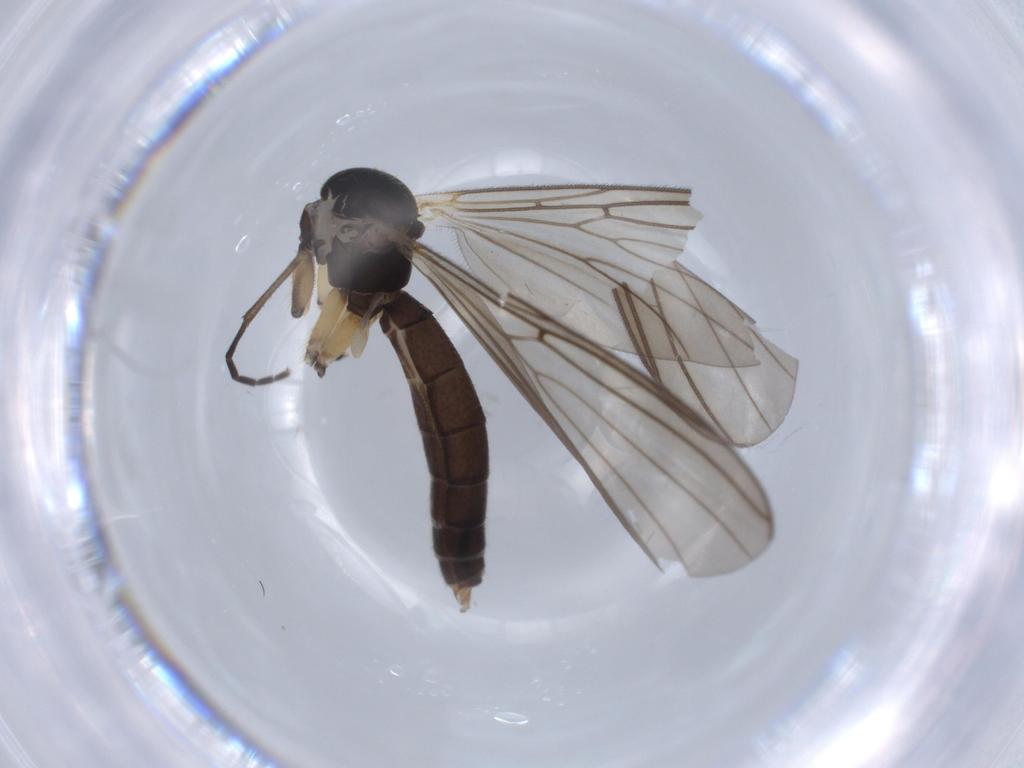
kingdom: Animalia
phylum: Arthropoda
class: Insecta
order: Diptera
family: Mycetophilidae
